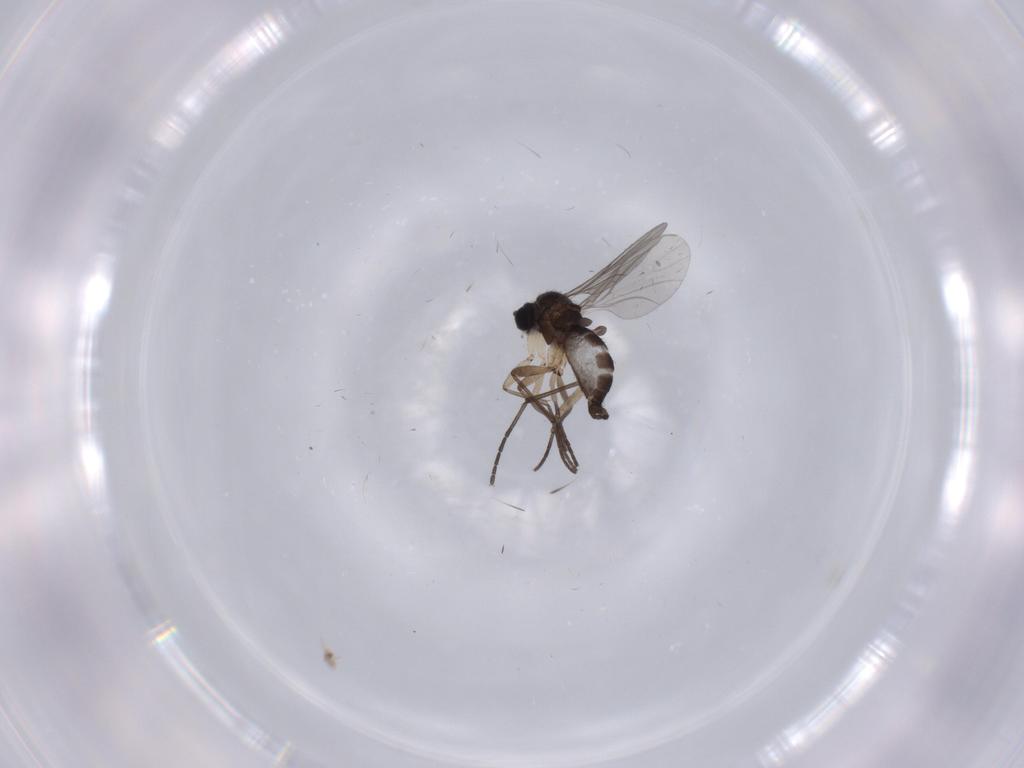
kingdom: Animalia
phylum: Arthropoda
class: Insecta
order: Diptera
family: Sciaridae
